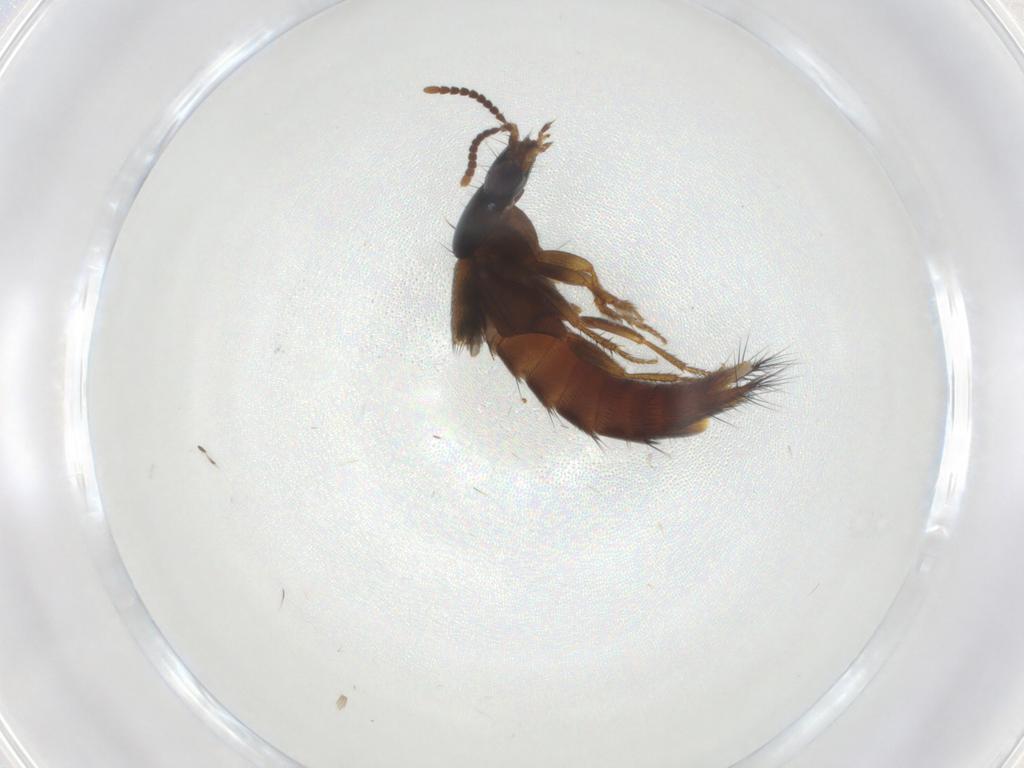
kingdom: Animalia
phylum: Arthropoda
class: Insecta
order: Coleoptera
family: Staphylinidae
